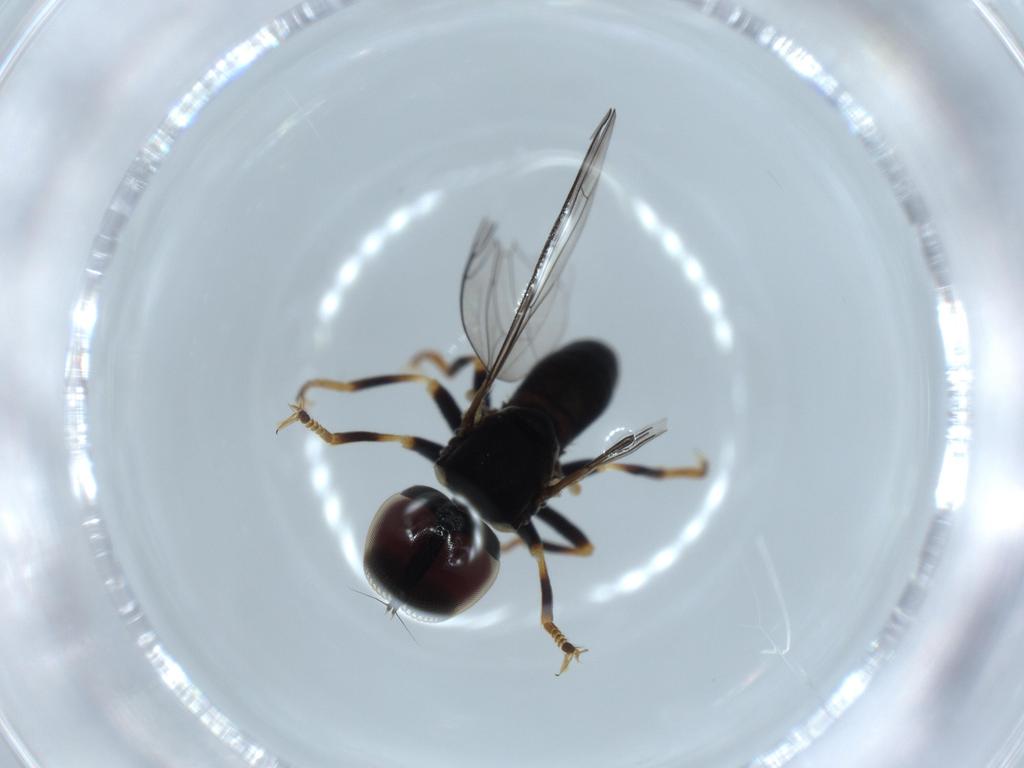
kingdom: Animalia
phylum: Arthropoda
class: Insecta
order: Diptera
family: Pipunculidae
